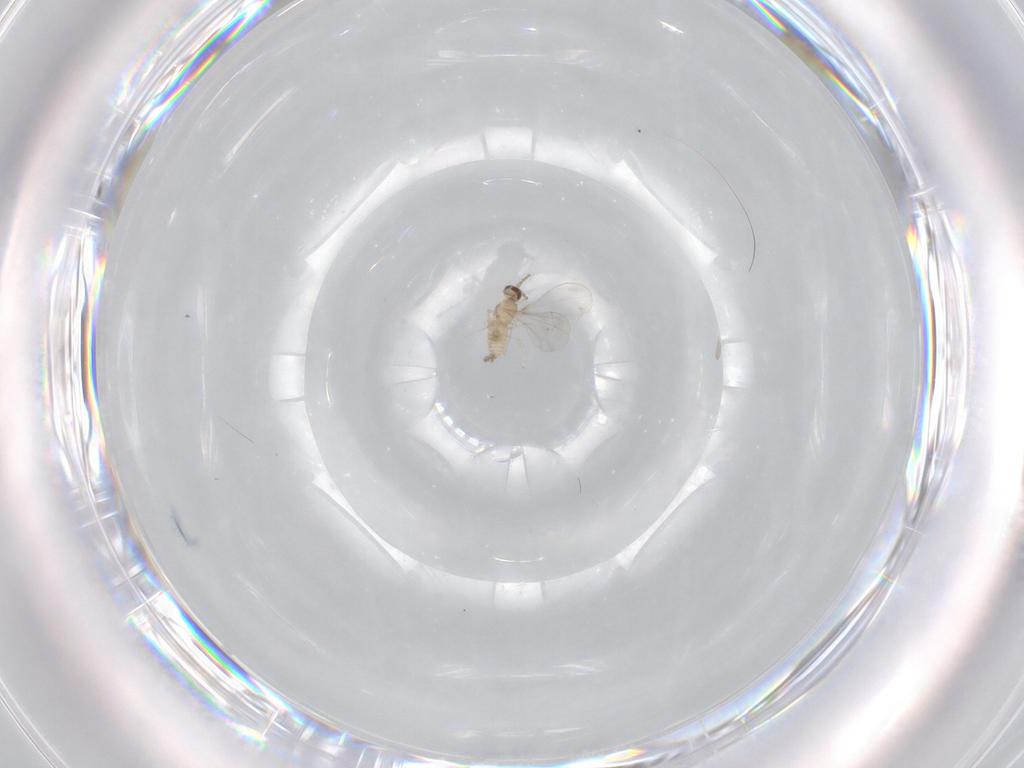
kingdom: Animalia
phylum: Arthropoda
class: Insecta
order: Diptera
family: Cecidomyiidae
